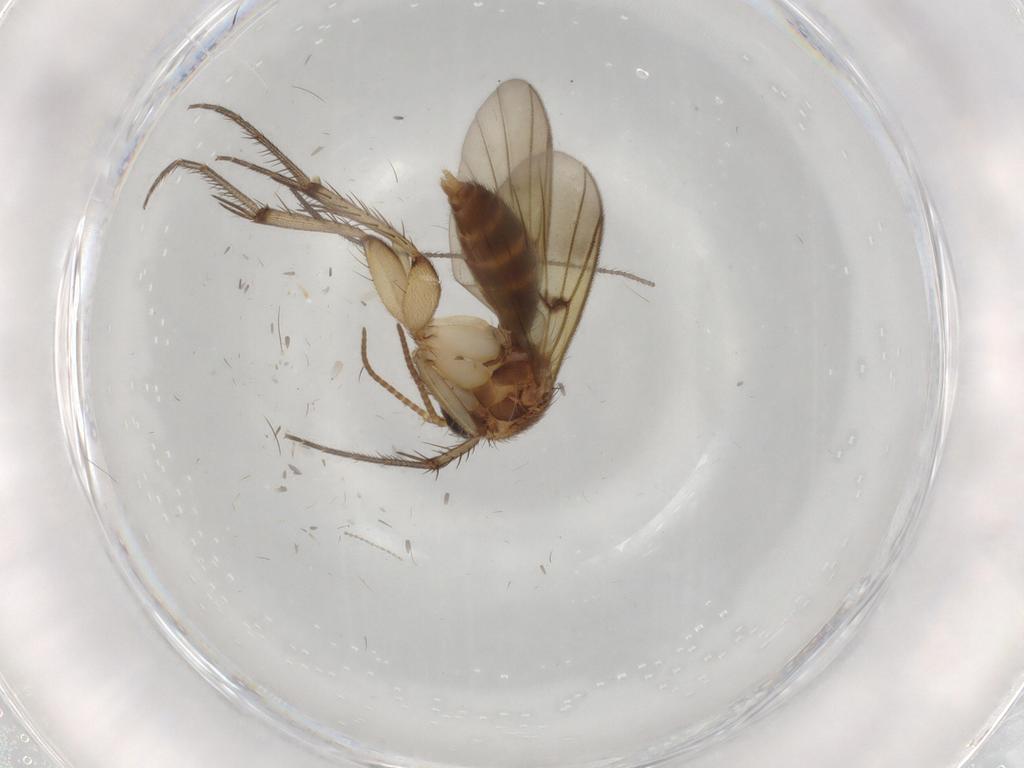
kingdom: Animalia
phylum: Arthropoda
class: Insecta
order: Diptera
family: Mycetophilidae
